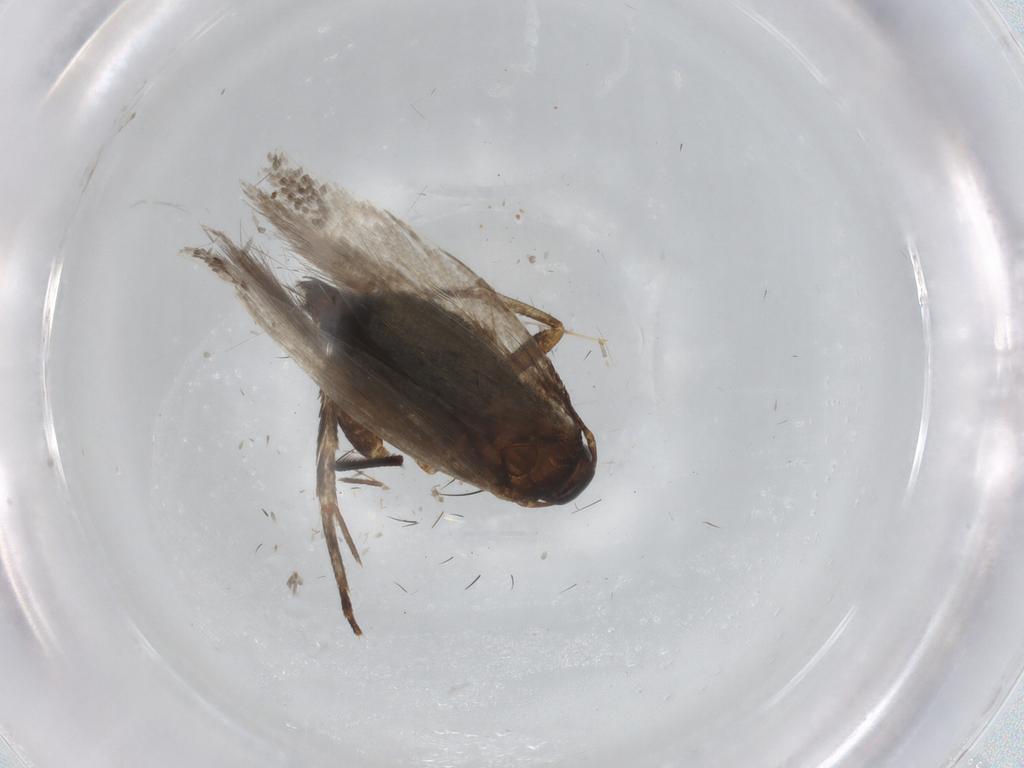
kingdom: Animalia
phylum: Arthropoda
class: Insecta
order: Lepidoptera
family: Gelechiidae
